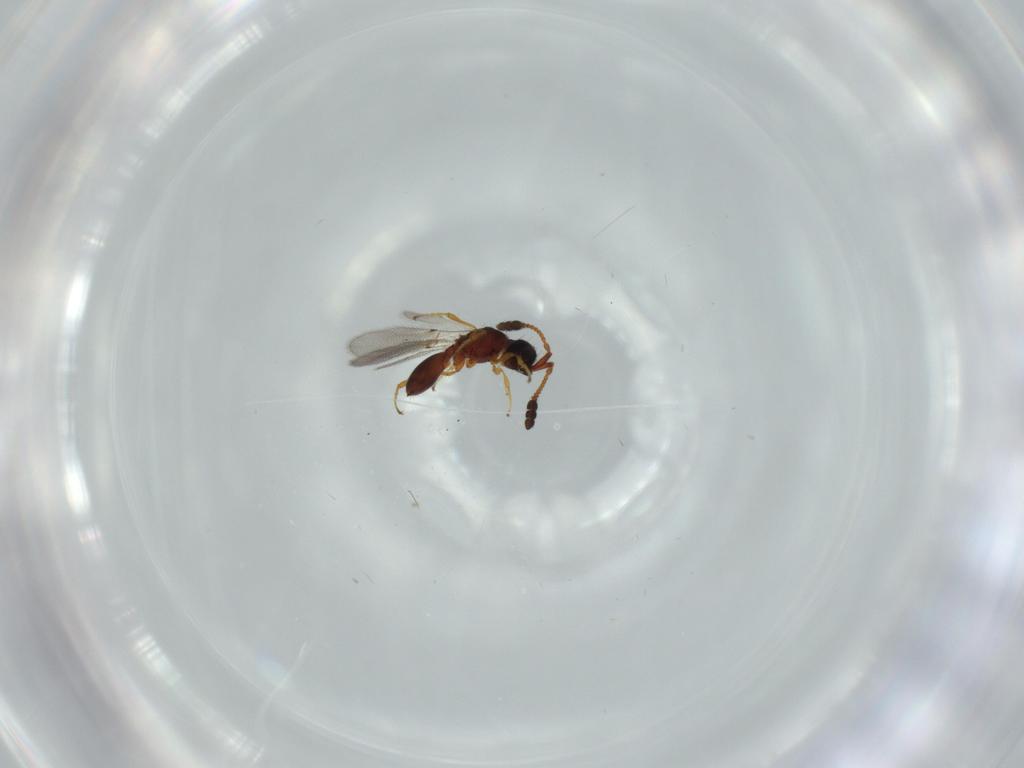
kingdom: Animalia
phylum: Arthropoda
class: Insecta
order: Hymenoptera
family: Diapriidae
